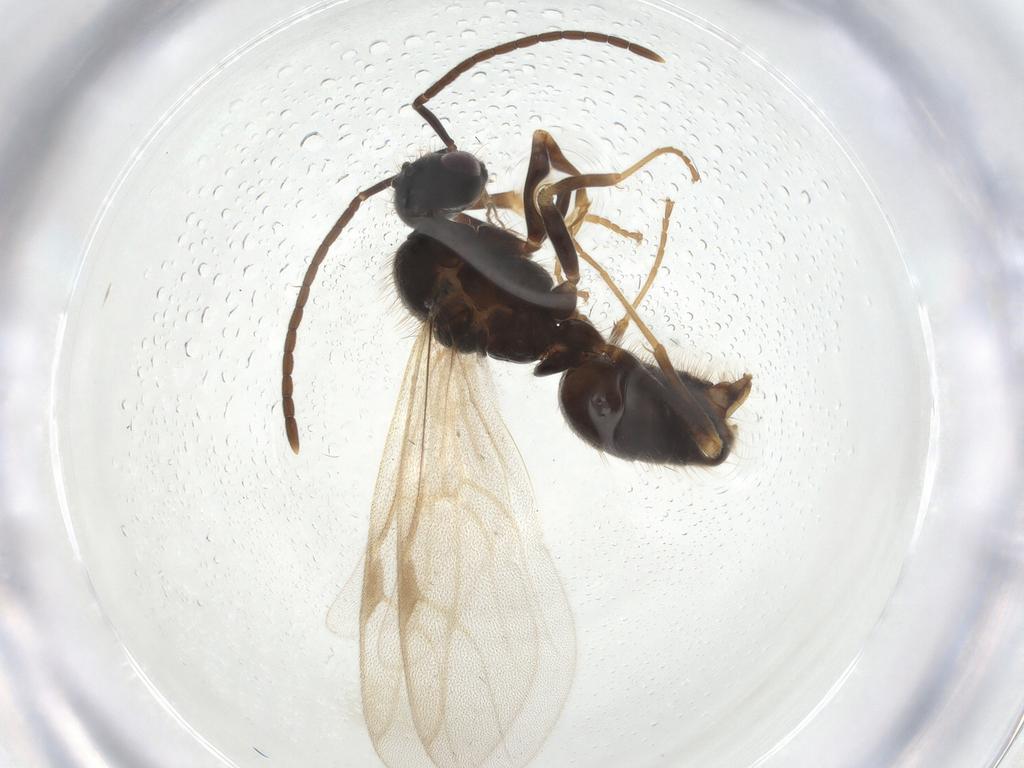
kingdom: Animalia
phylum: Arthropoda
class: Insecta
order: Hymenoptera
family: Formicidae
